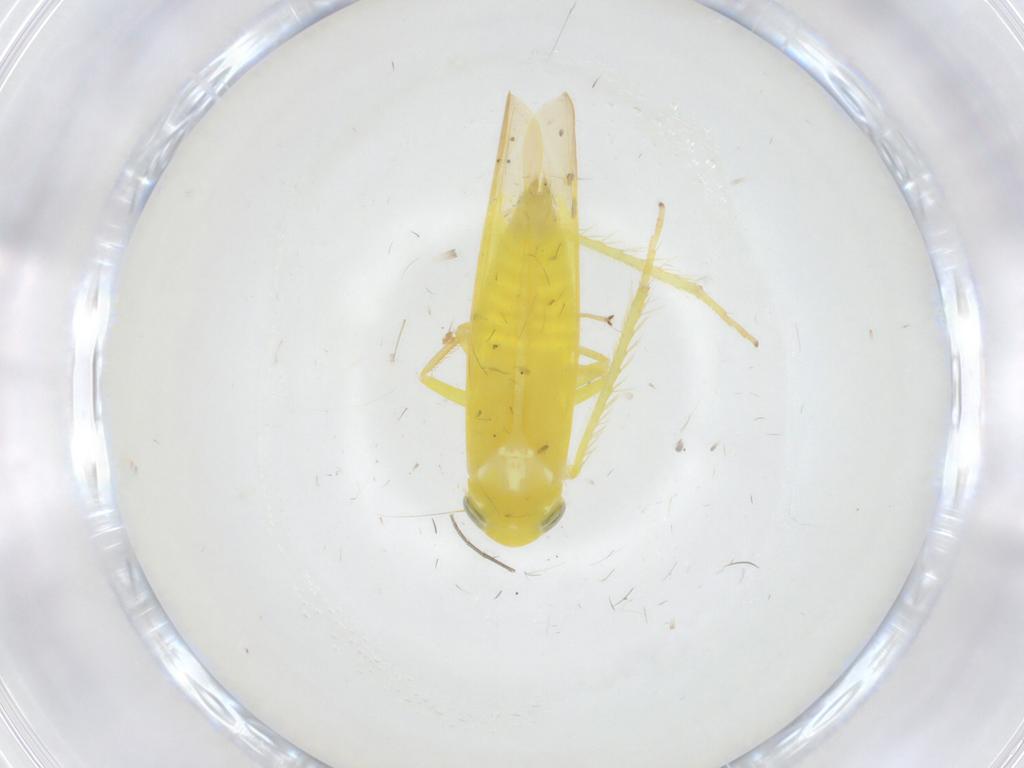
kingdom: Animalia
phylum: Arthropoda
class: Insecta
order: Hemiptera
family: Cicadellidae
